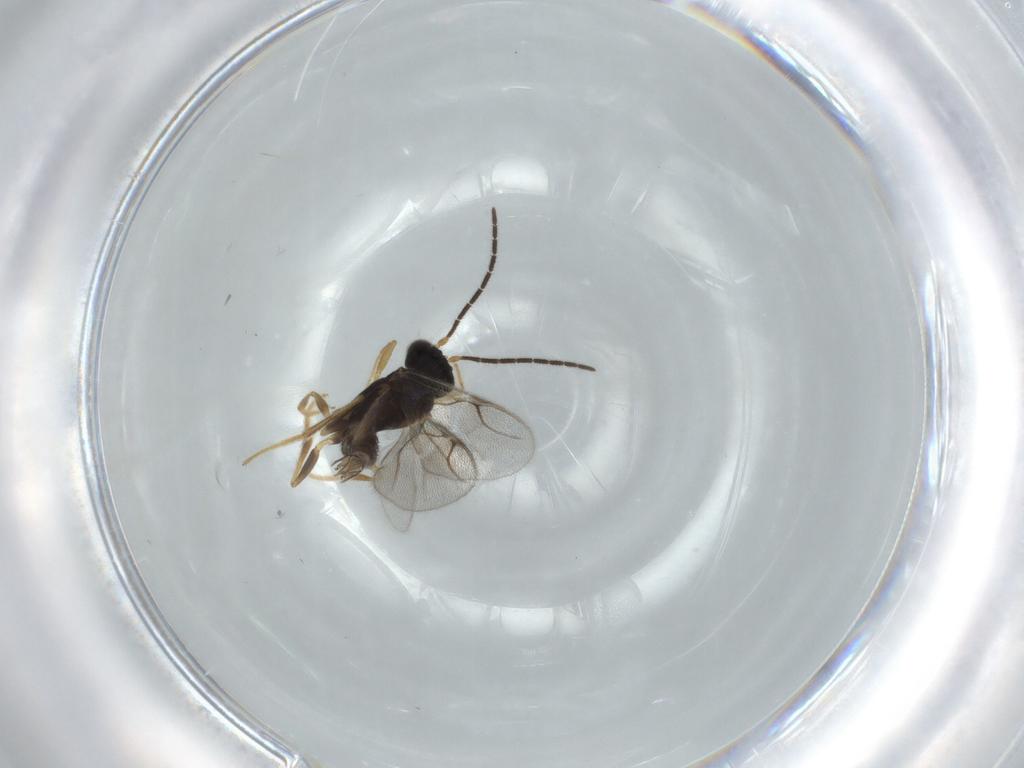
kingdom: Animalia
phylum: Arthropoda
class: Insecta
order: Hymenoptera
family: Dryinidae
